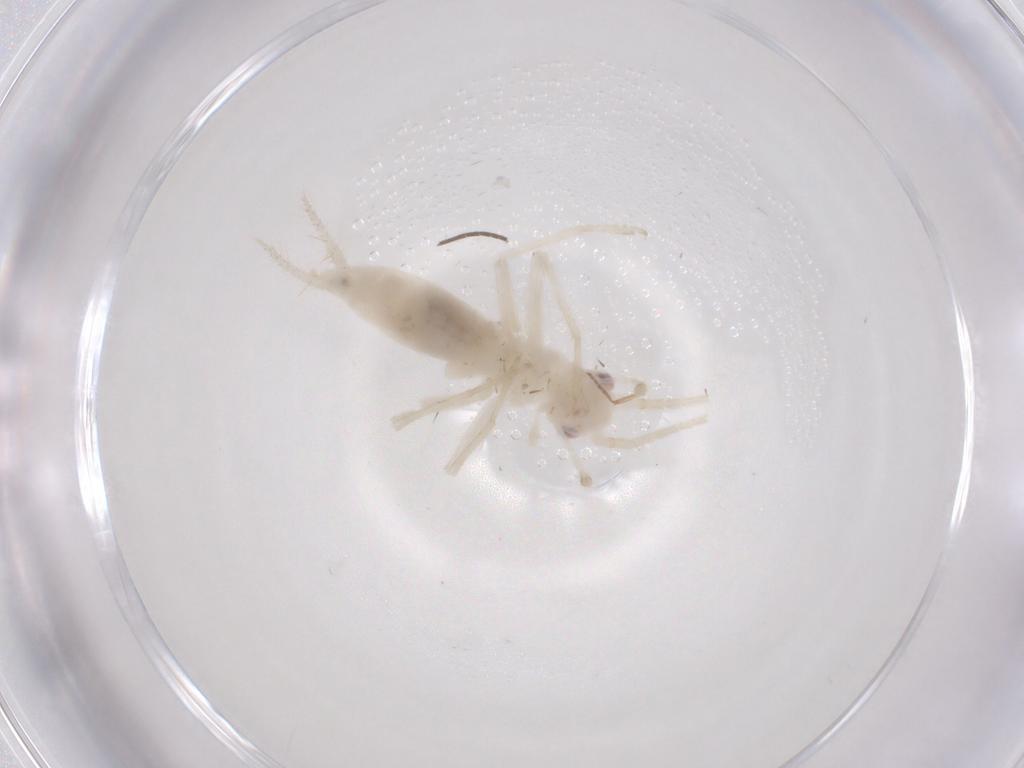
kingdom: Animalia
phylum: Arthropoda
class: Insecta
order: Orthoptera
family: Trigonidiidae
